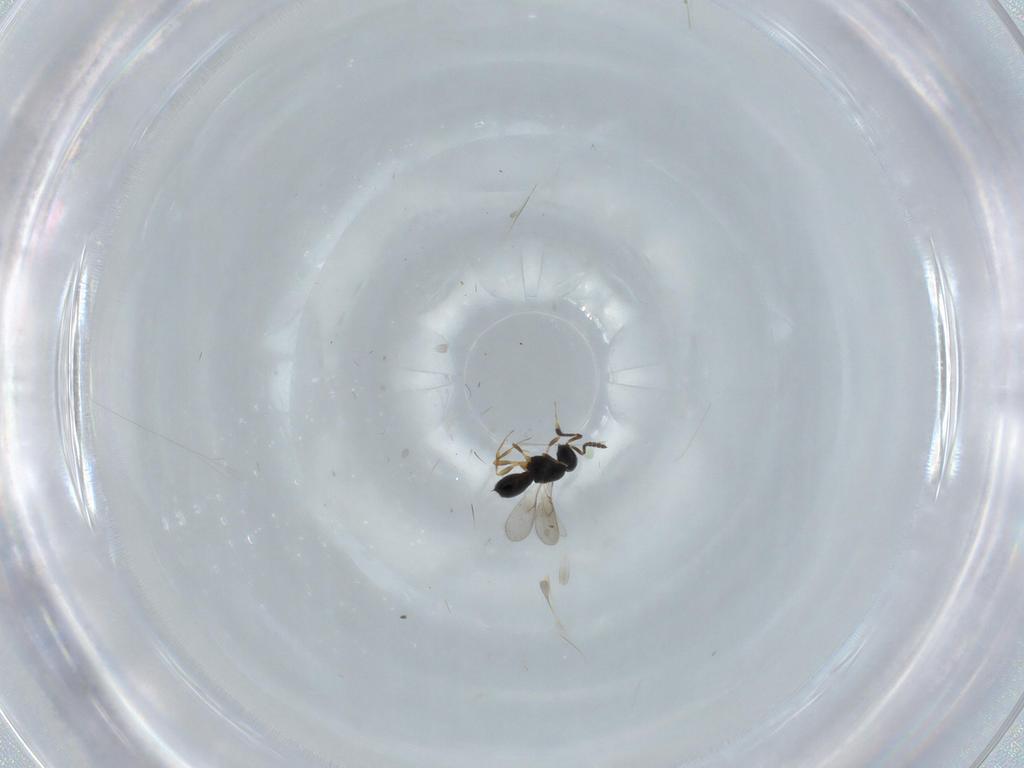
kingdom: Animalia
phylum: Arthropoda
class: Insecta
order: Hymenoptera
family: Scelionidae
